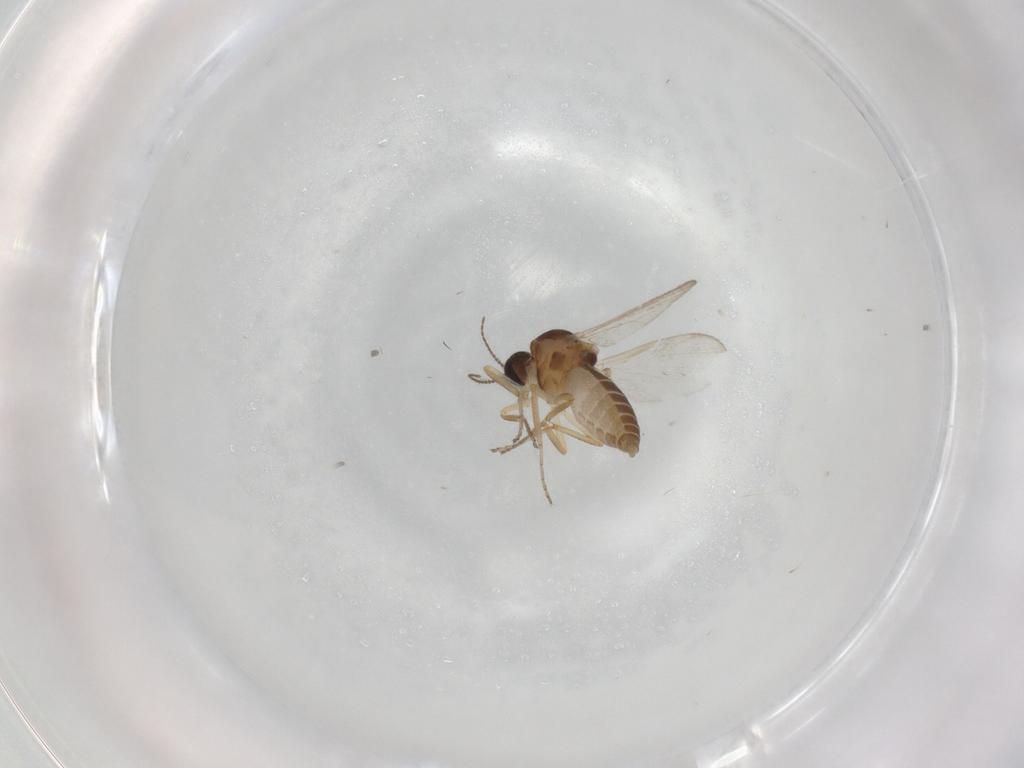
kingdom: Animalia
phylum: Arthropoda
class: Insecta
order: Diptera
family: Ceratopogonidae
